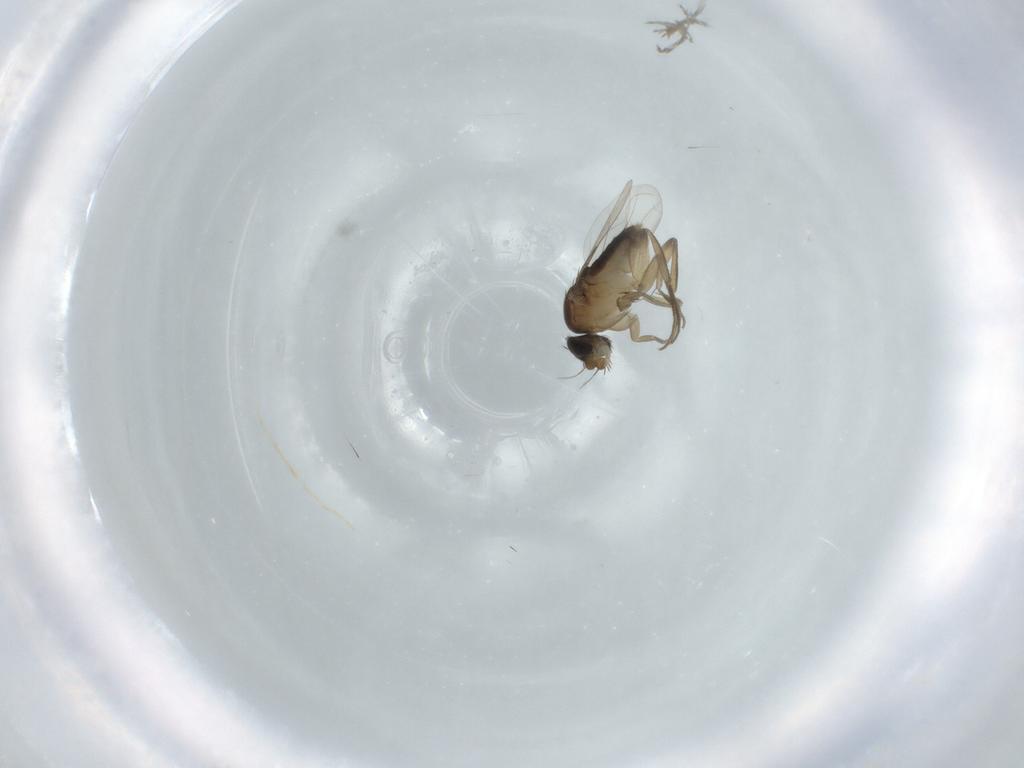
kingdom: Animalia
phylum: Arthropoda
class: Insecta
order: Diptera
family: Phoridae
